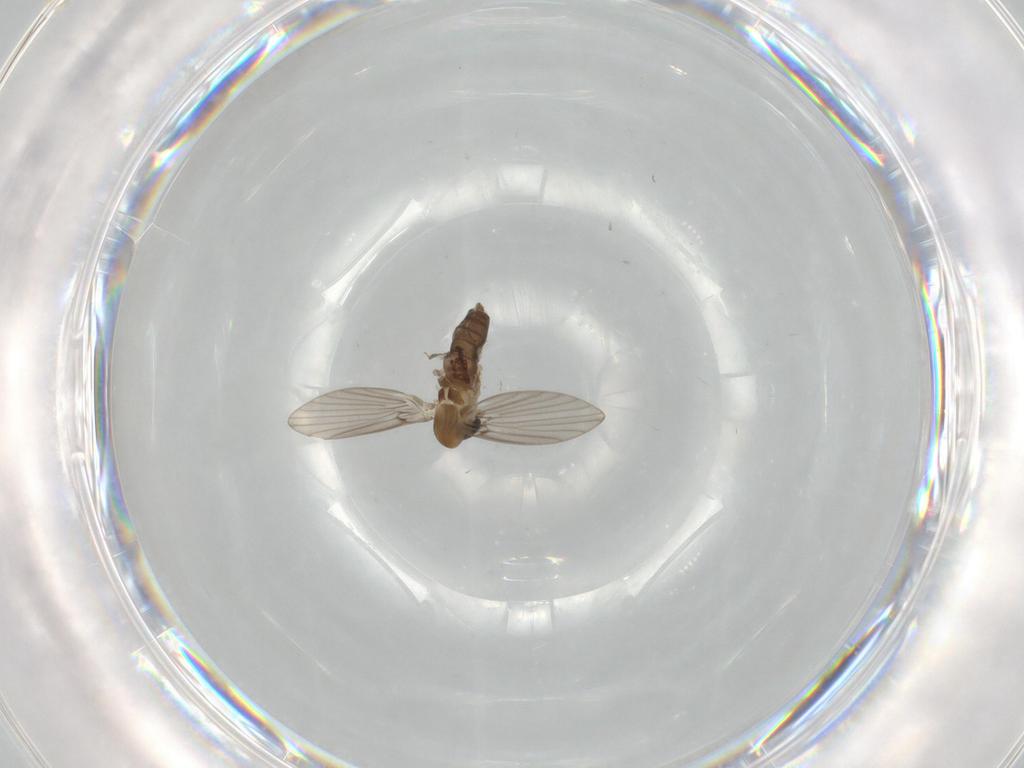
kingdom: Animalia
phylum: Arthropoda
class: Insecta
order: Diptera
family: Psychodidae
